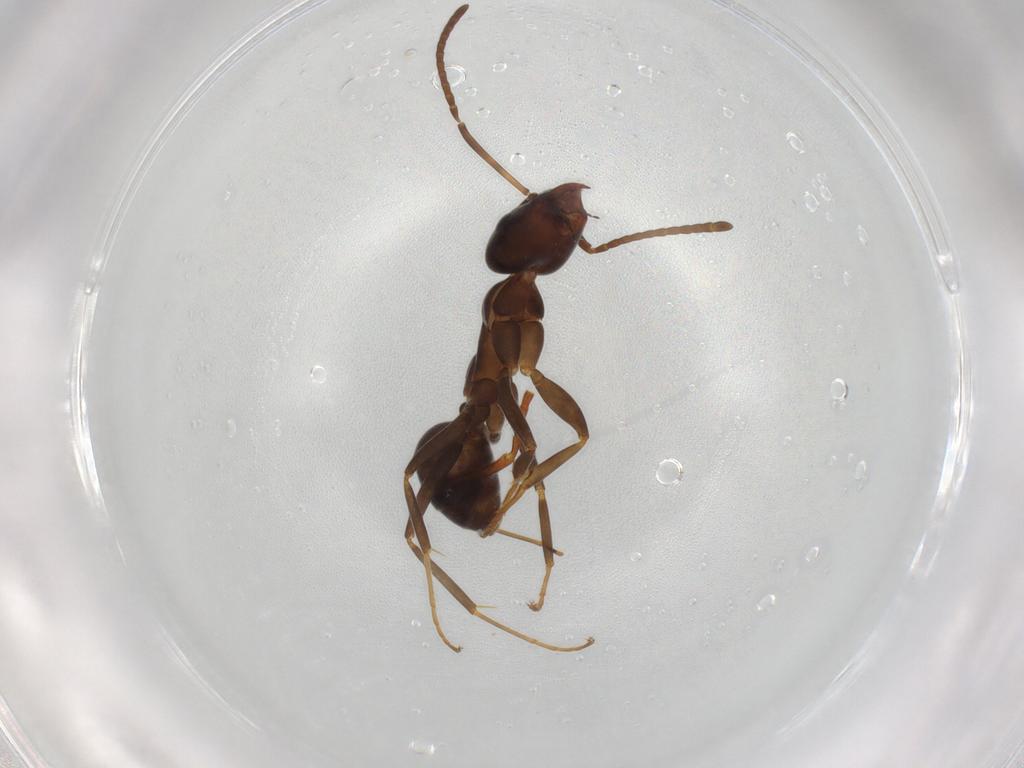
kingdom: Animalia
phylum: Arthropoda
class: Insecta
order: Hymenoptera
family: Formicidae
